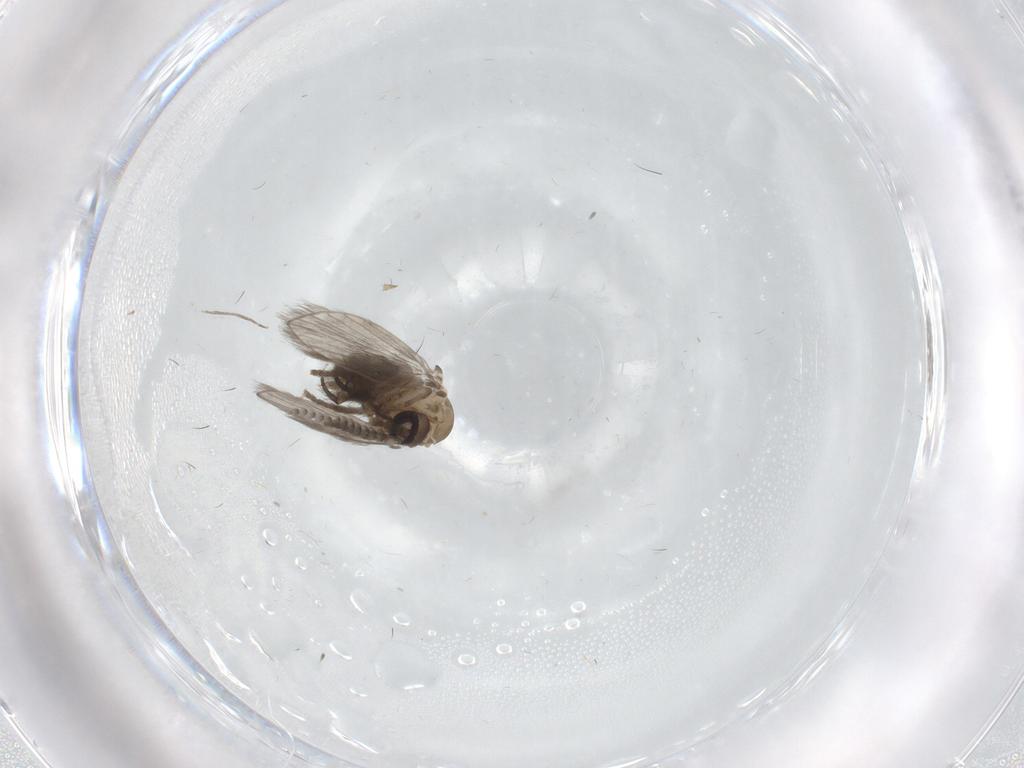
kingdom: Animalia
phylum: Arthropoda
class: Insecta
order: Diptera
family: Psychodidae
